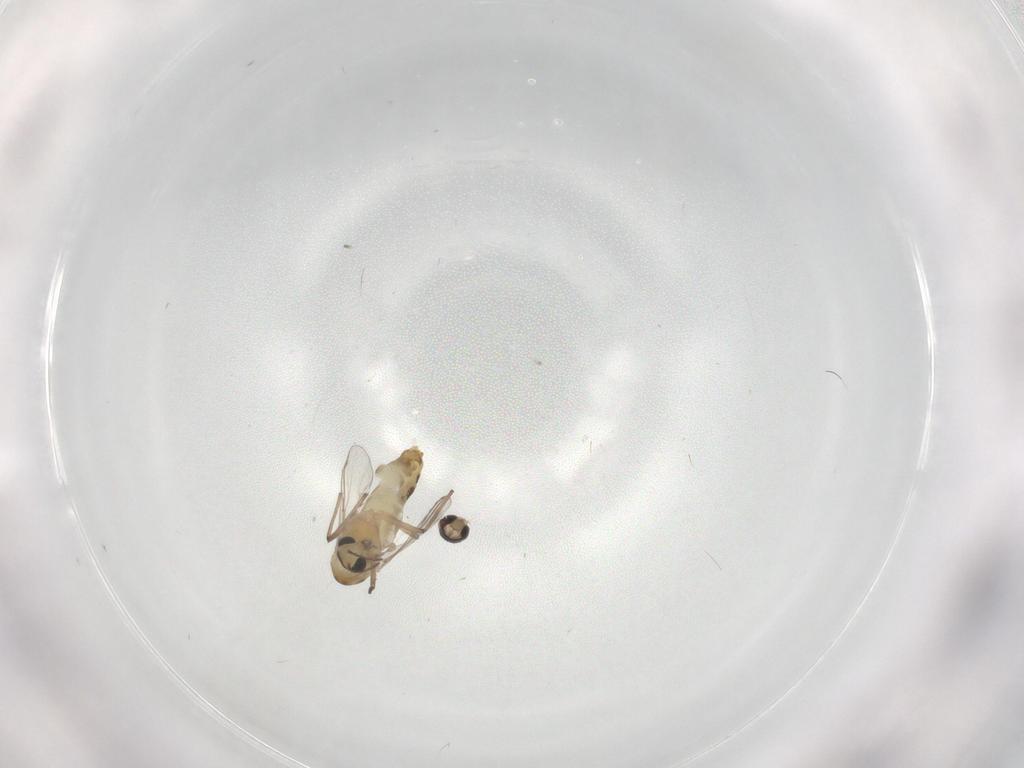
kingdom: Animalia
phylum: Arthropoda
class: Insecta
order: Diptera
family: Chironomidae
